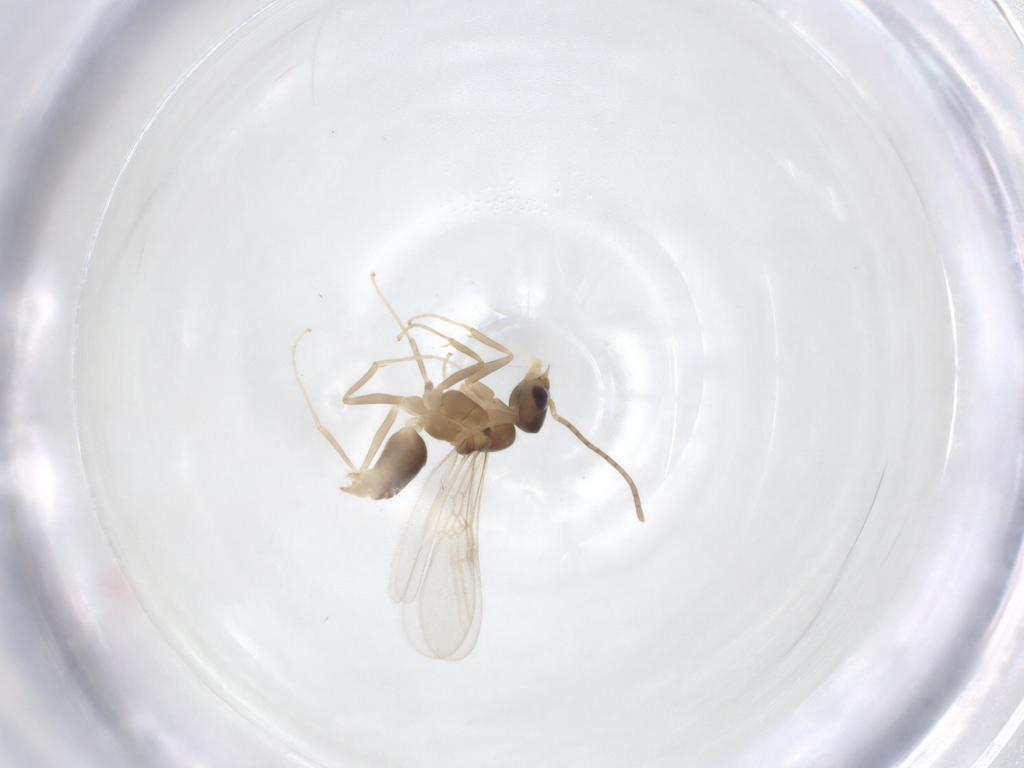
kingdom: Animalia
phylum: Arthropoda
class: Insecta
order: Hymenoptera
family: Formicidae
